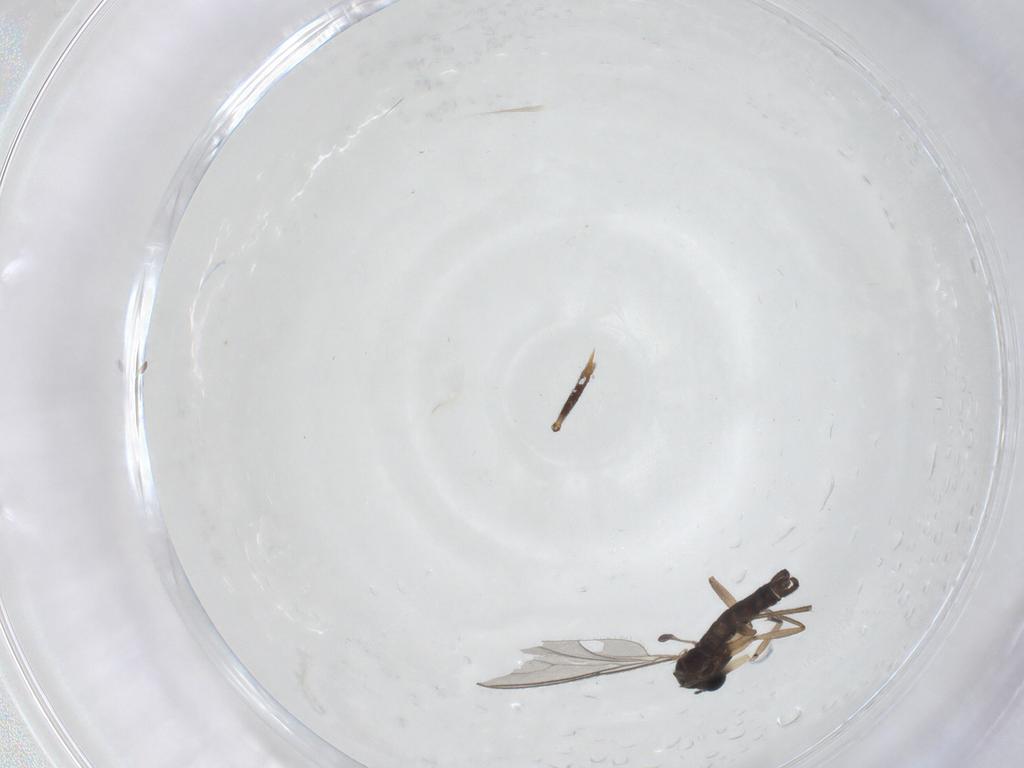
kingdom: Animalia
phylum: Arthropoda
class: Insecta
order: Diptera
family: Sciaridae
